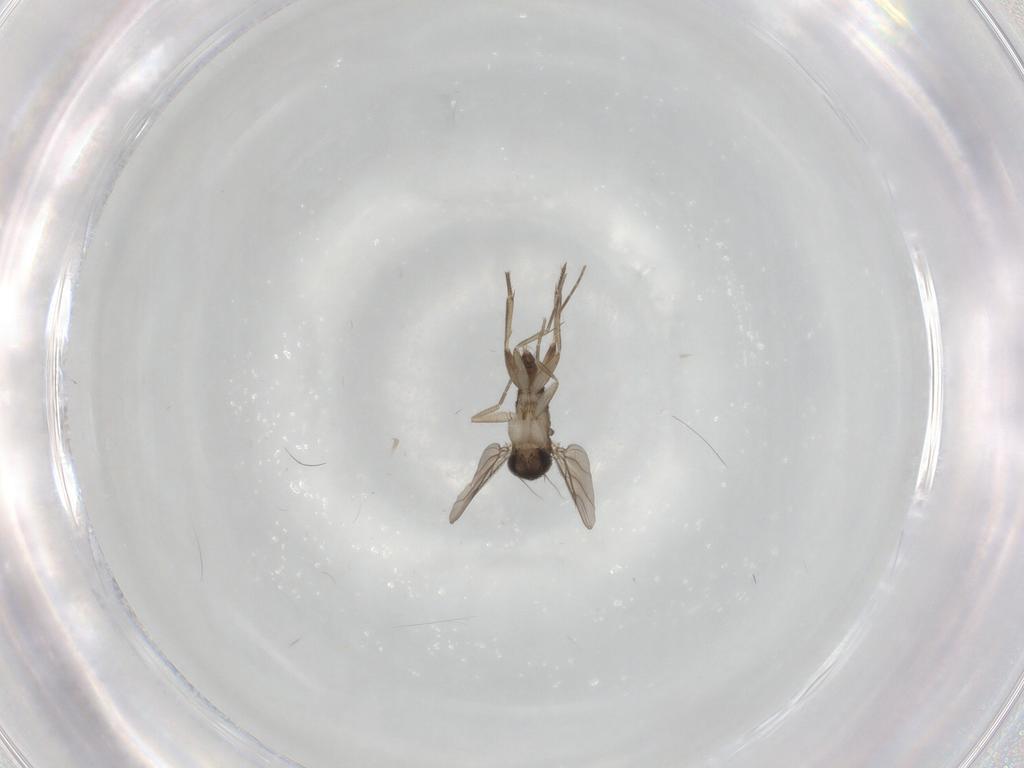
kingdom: Animalia
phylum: Arthropoda
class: Insecta
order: Diptera
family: Phoridae
